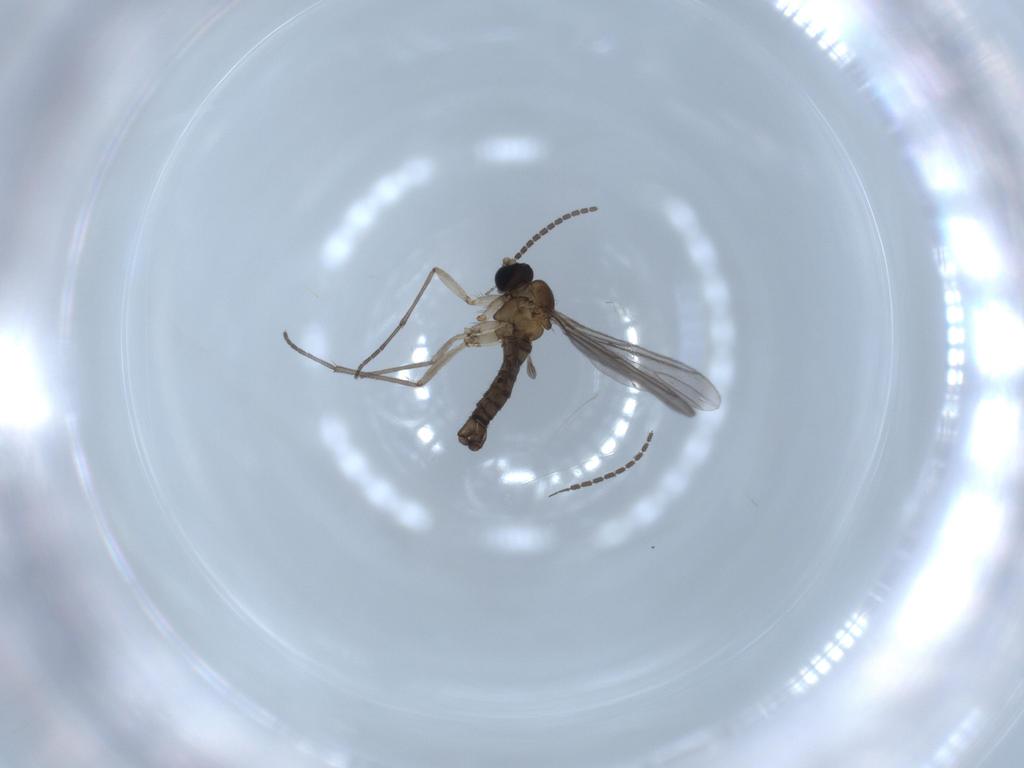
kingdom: Animalia
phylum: Arthropoda
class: Insecta
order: Diptera
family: Sciaridae
